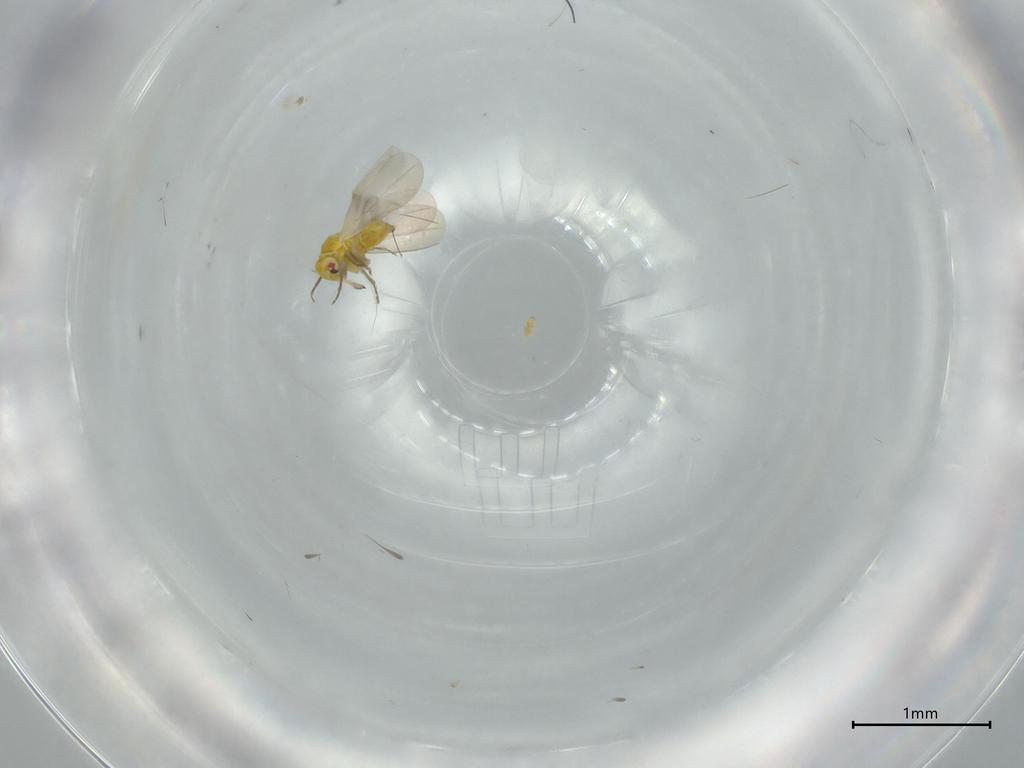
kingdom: Animalia
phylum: Arthropoda
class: Insecta
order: Hemiptera
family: Aleyrodidae
